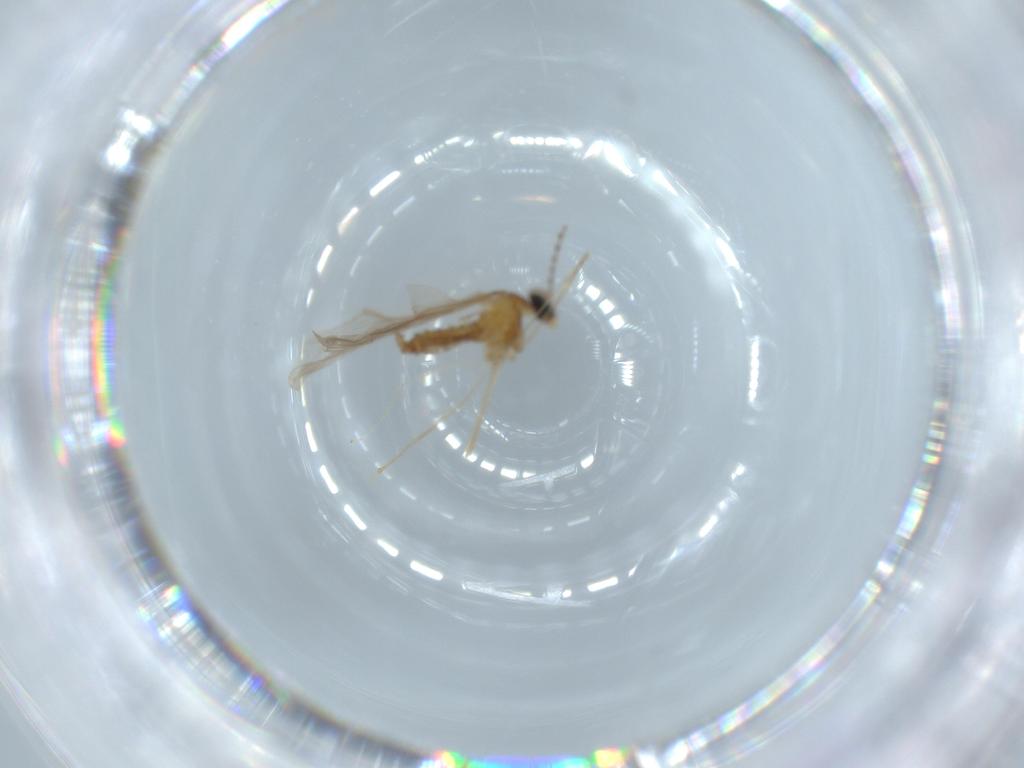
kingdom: Animalia
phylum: Arthropoda
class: Insecta
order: Diptera
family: Cecidomyiidae
